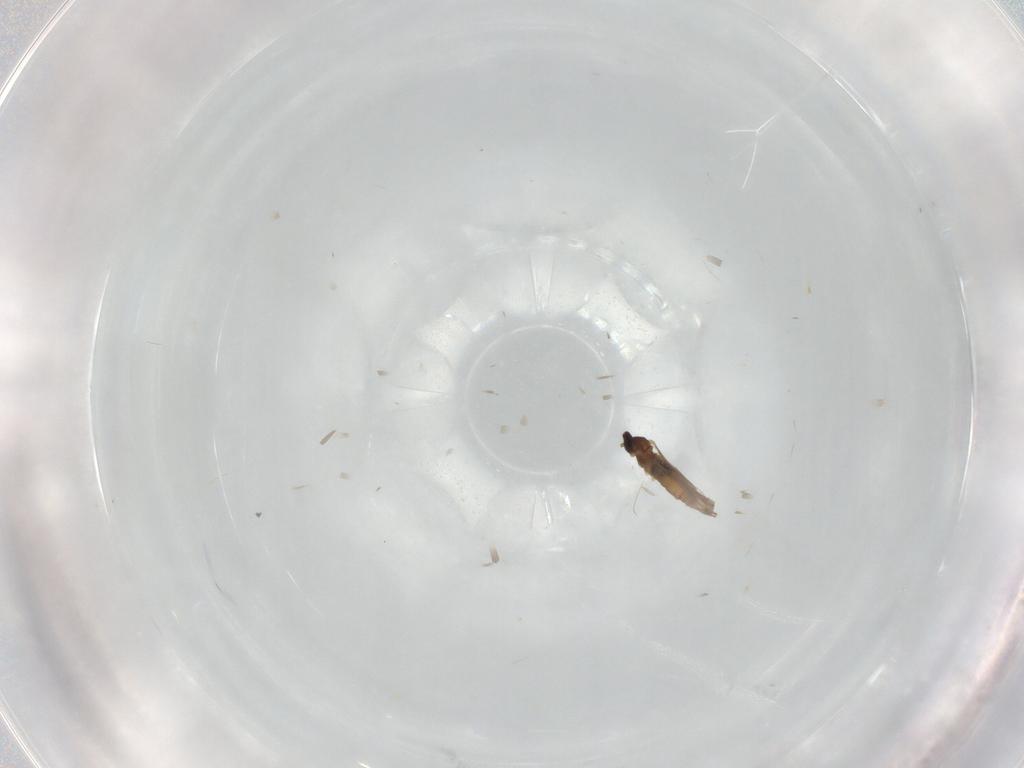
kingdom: Animalia
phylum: Arthropoda
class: Insecta
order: Diptera
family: Cecidomyiidae
